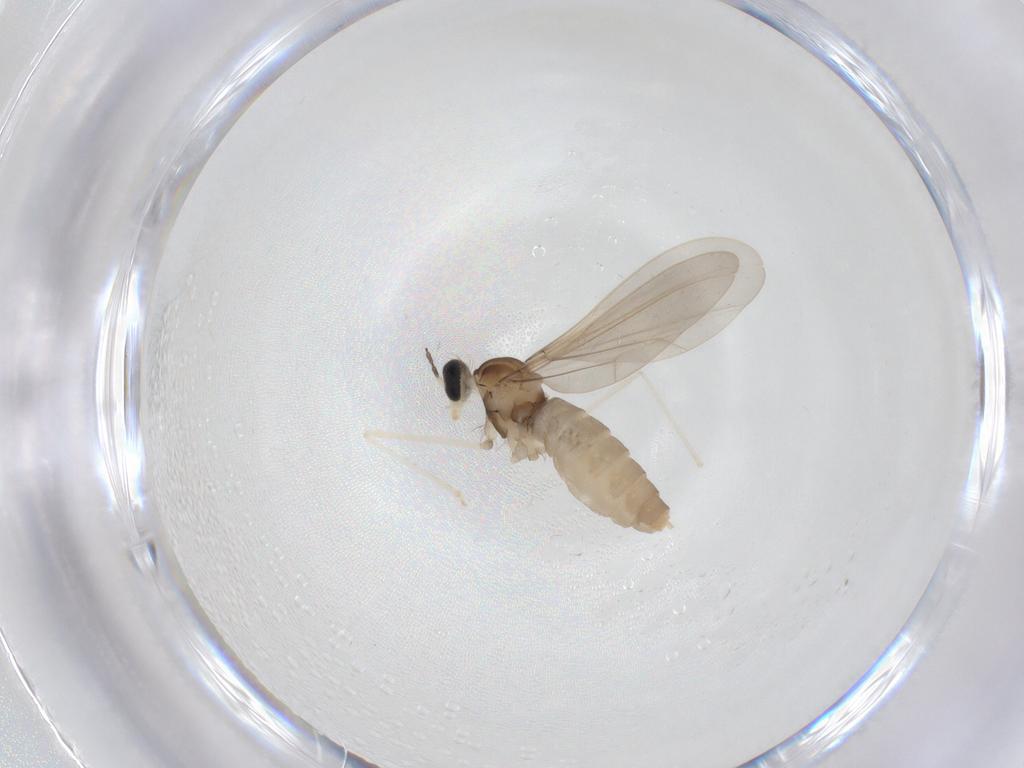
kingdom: Animalia
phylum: Arthropoda
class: Insecta
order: Diptera
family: Cecidomyiidae
